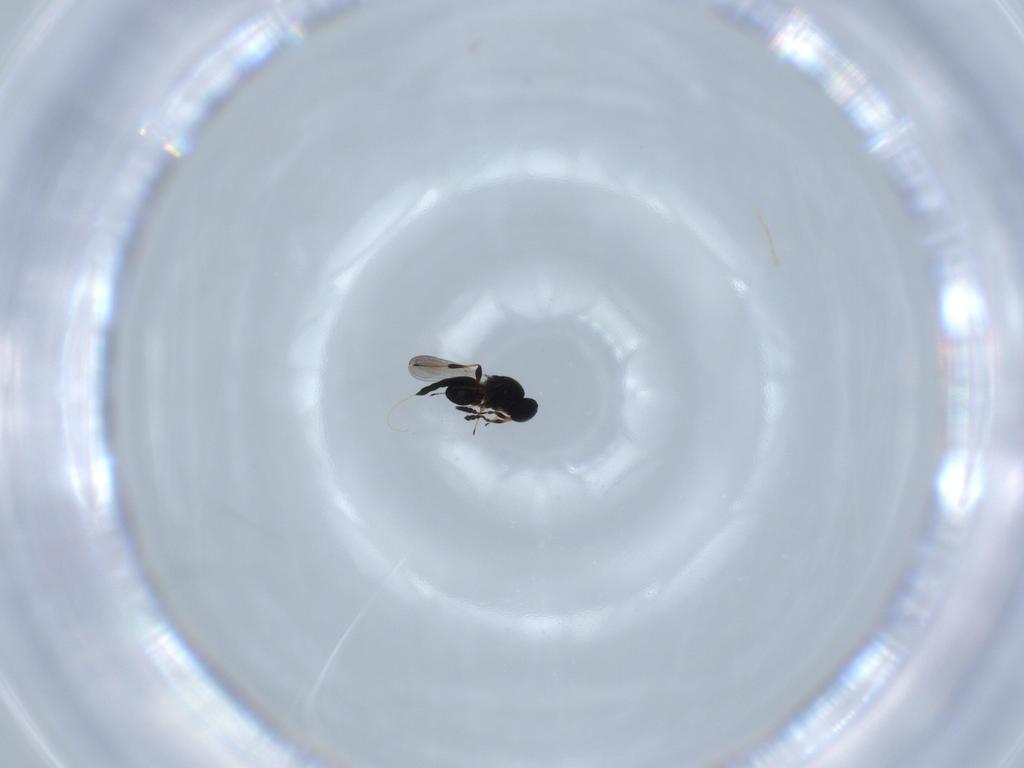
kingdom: Animalia
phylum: Arthropoda
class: Insecta
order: Hymenoptera
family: Platygastridae
